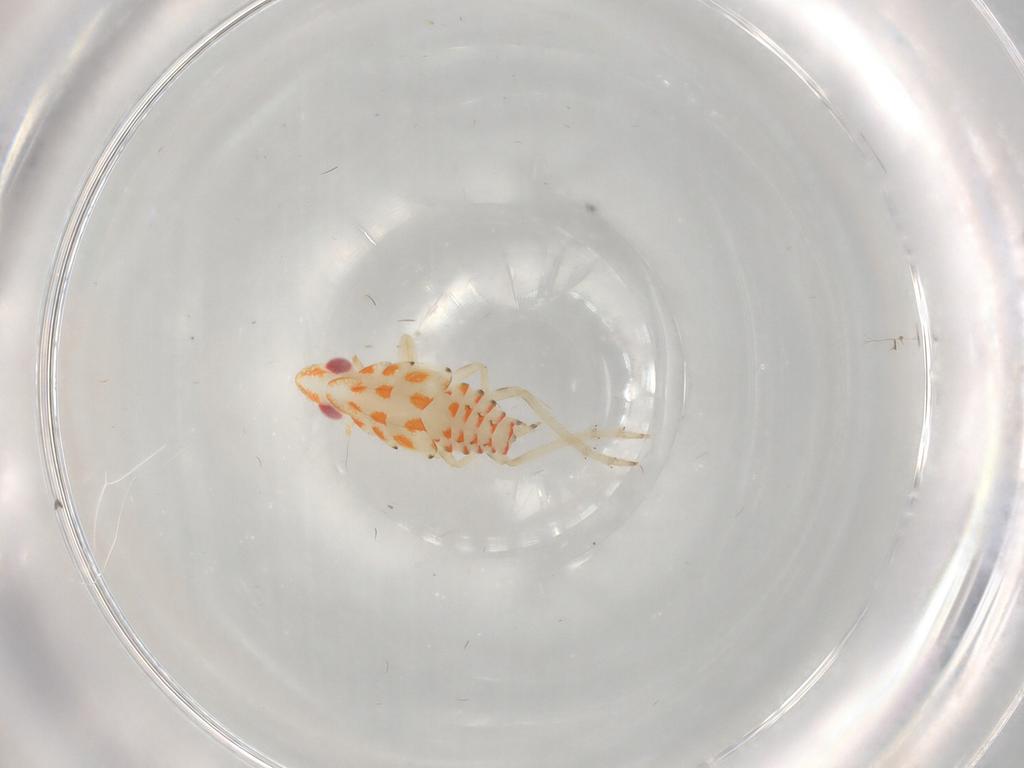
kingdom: Animalia
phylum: Arthropoda
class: Insecta
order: Hemiptera
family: Tropiduchidae
